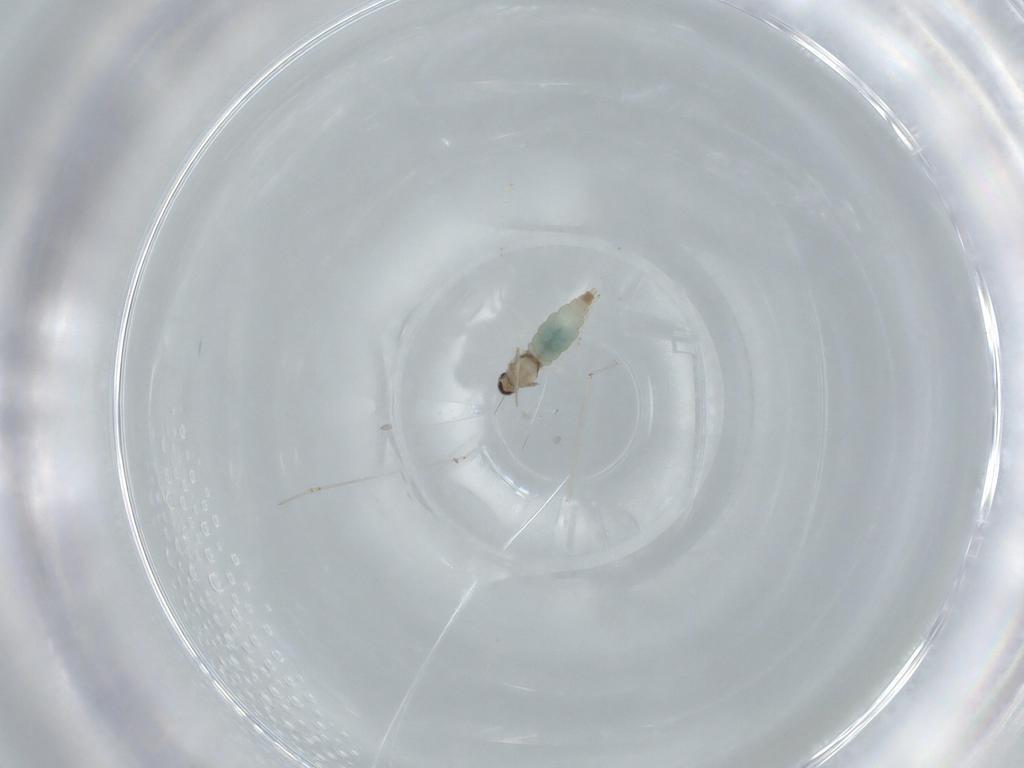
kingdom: Animalia
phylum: Arthropoda
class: Insecta
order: Diptera
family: Cecidomyiidae
